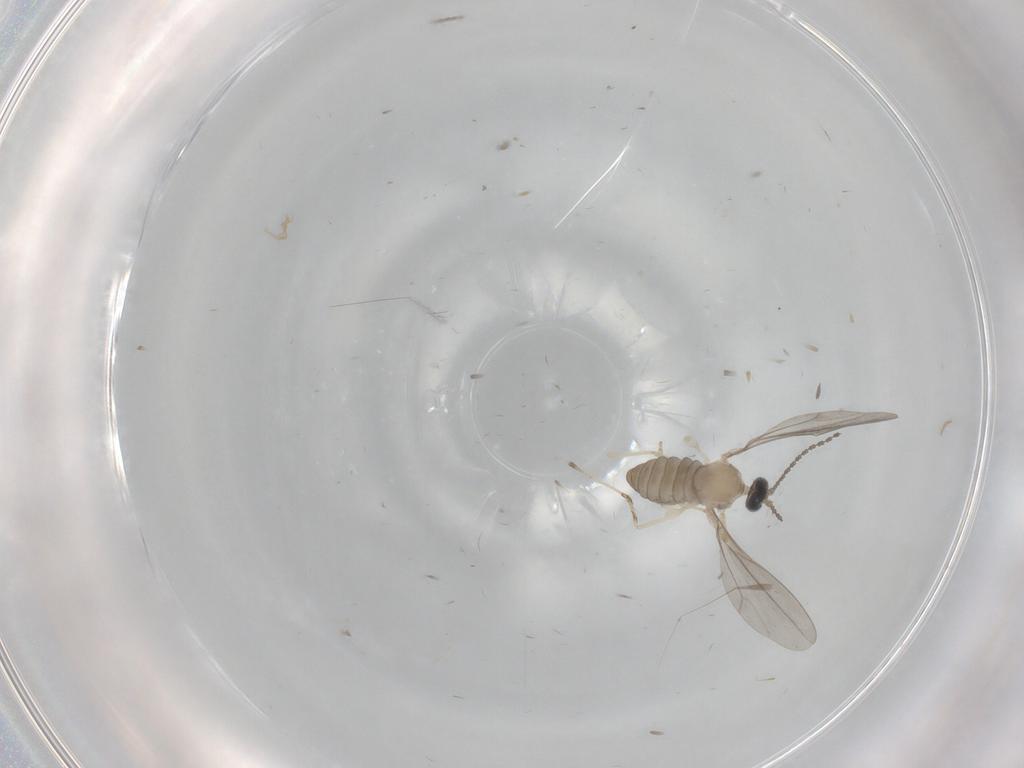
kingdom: Animalia
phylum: Arthropoda
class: Insecta
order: Diptera
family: Cecidomyiidae
